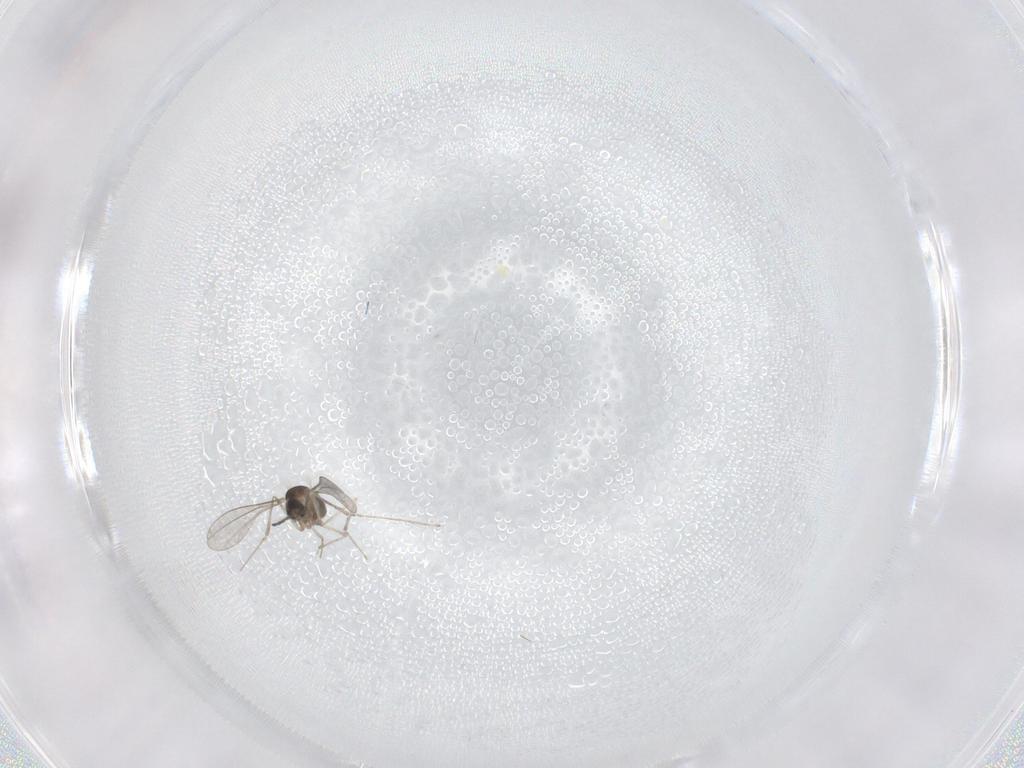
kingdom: Animalia
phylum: Arthropoda
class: Insecta
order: Diptera
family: Cecidomyiidae
